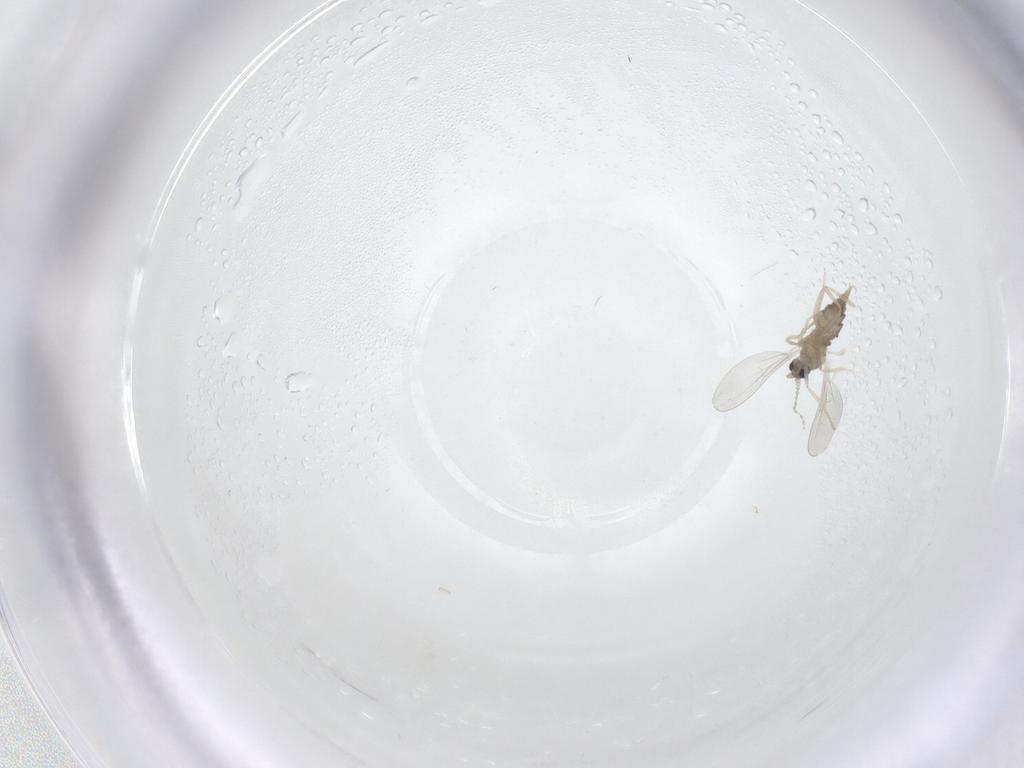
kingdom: Animalia
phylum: Arthropoda
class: Insecta
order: Diptera
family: Cecidomyiidae
